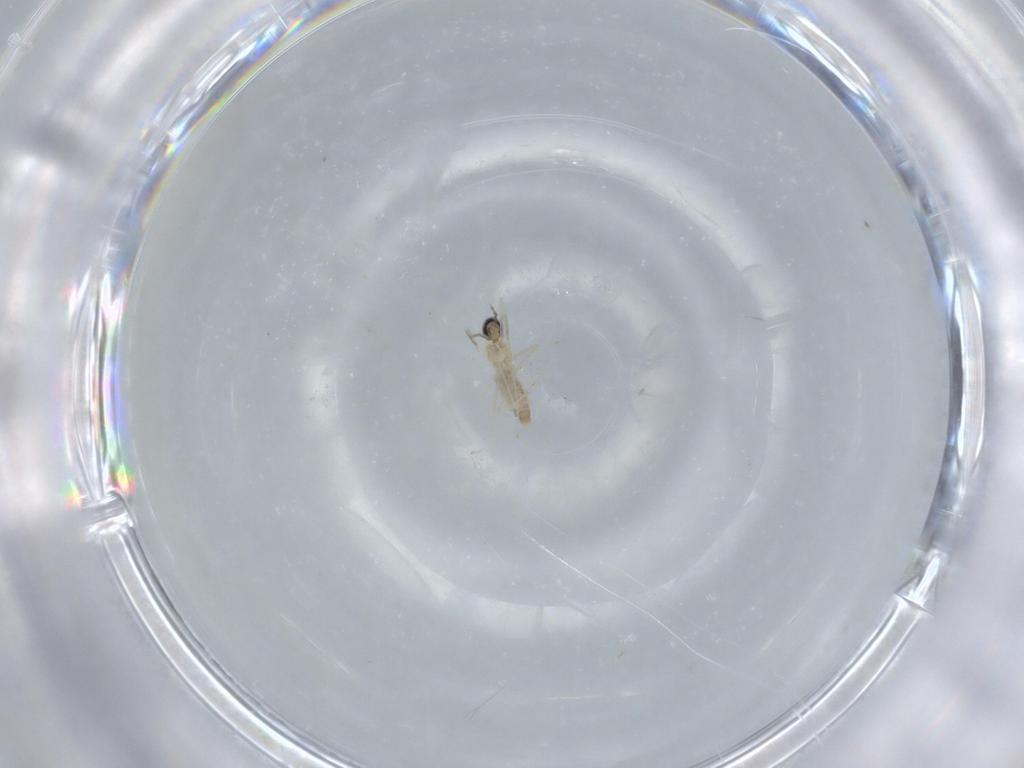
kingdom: Animalia
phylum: Arthropoda
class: Insecta
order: Diptera
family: Cecidomyiidae
